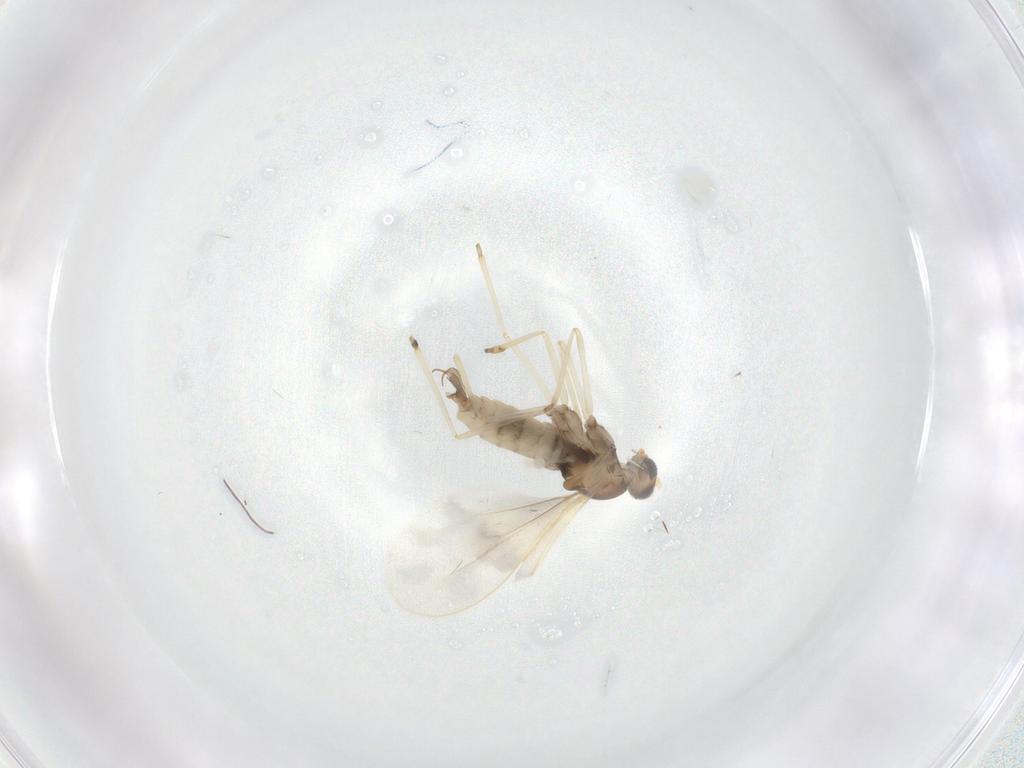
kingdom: Animalia
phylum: Arthropoda
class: Insecta
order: Diptera
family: Cecidomyiidae
